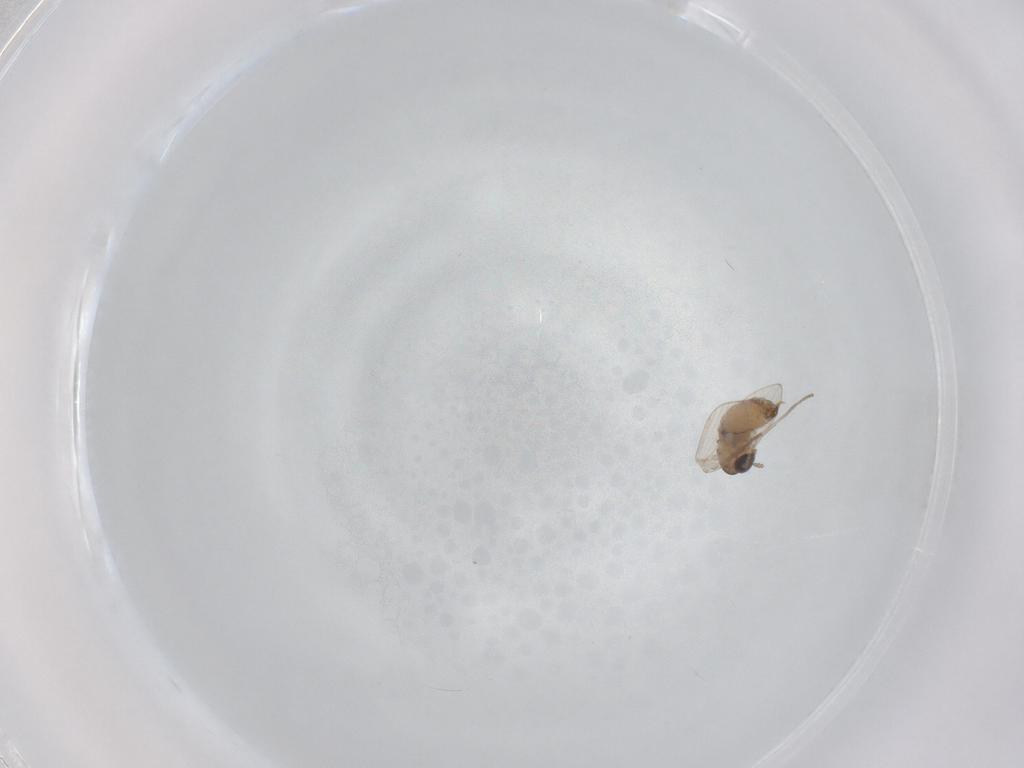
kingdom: Animalia
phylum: Arthropoda
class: Insecta
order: Diptera
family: Psychodidae
